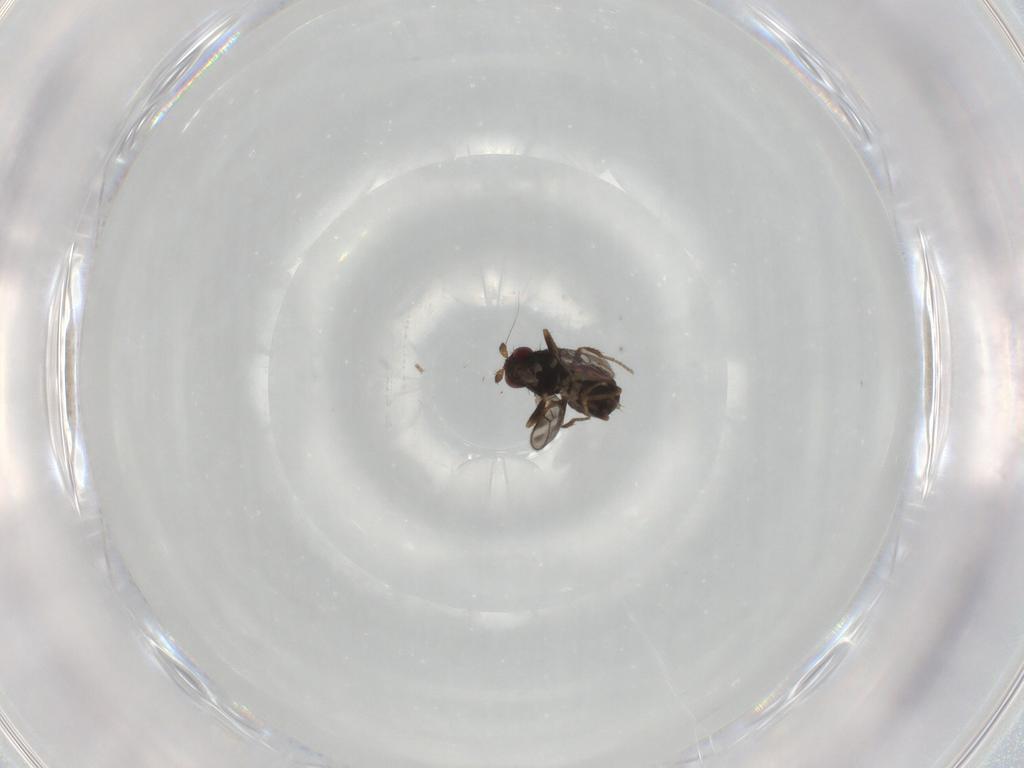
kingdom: Animalia
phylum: Arthropoda
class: Insecta
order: Diptera
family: Sphaeroceridae
